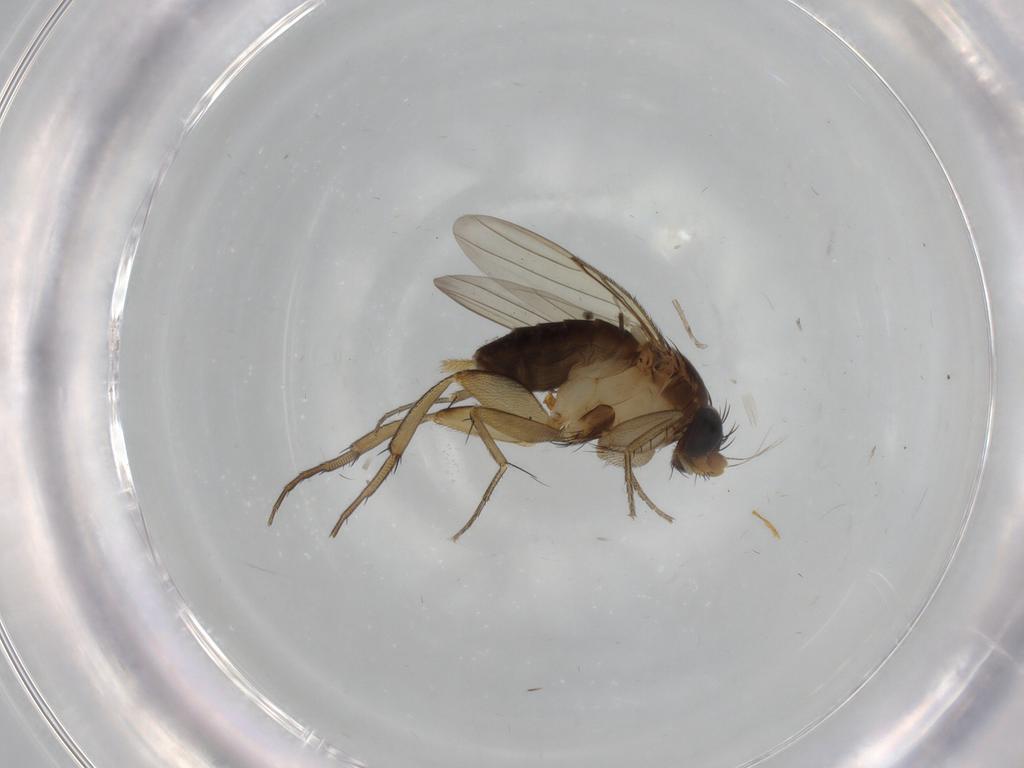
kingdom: Animalia
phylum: Arthropoda
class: Insecta
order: Diptera
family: Phoridae
